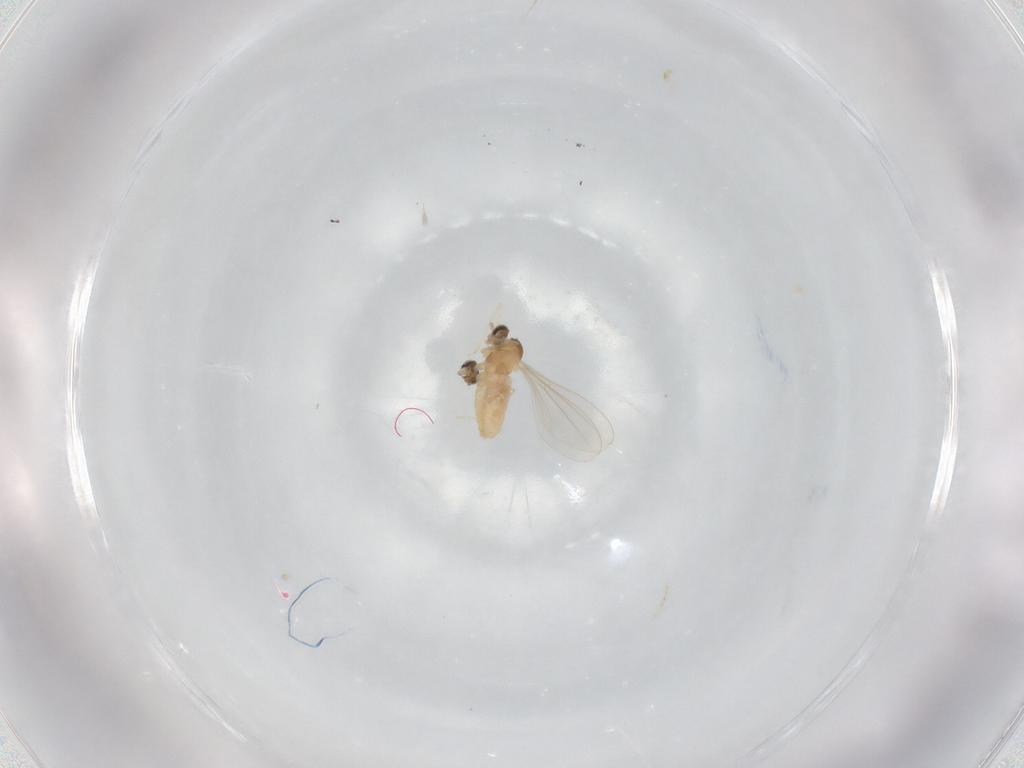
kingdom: Animalia
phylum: Arthropoda
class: Insecta
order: Diptera
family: Cecidomyiidae
